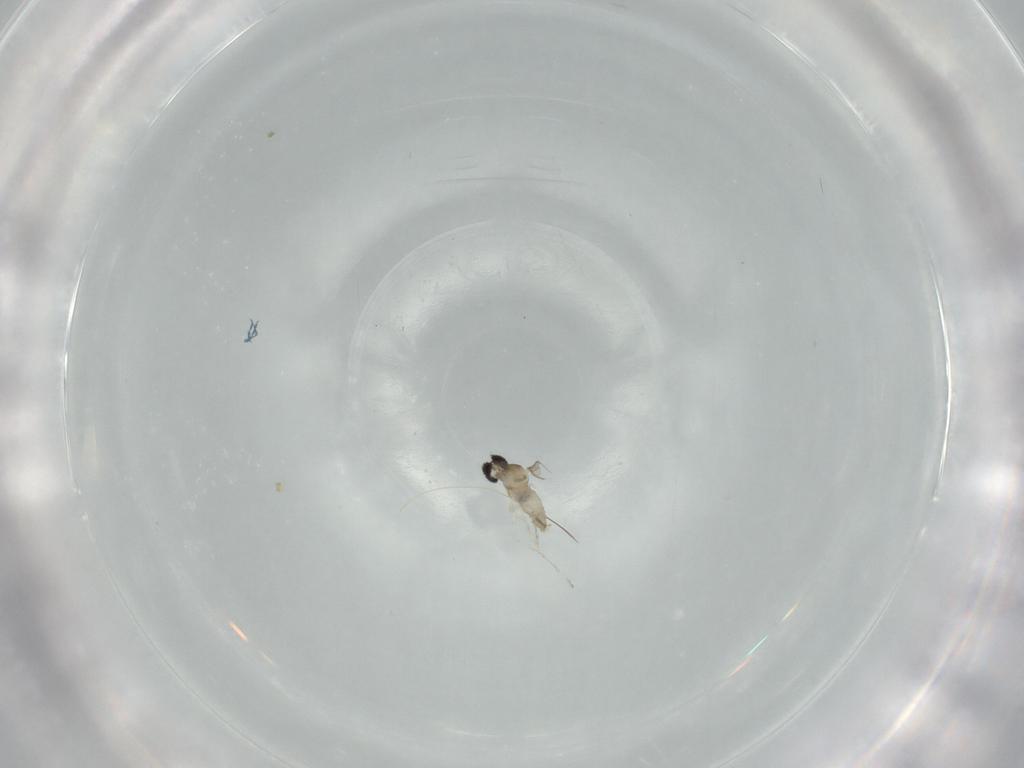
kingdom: Animalia
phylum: Arthropoda
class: Insecta
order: Diptera
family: Cecidomyiidae
